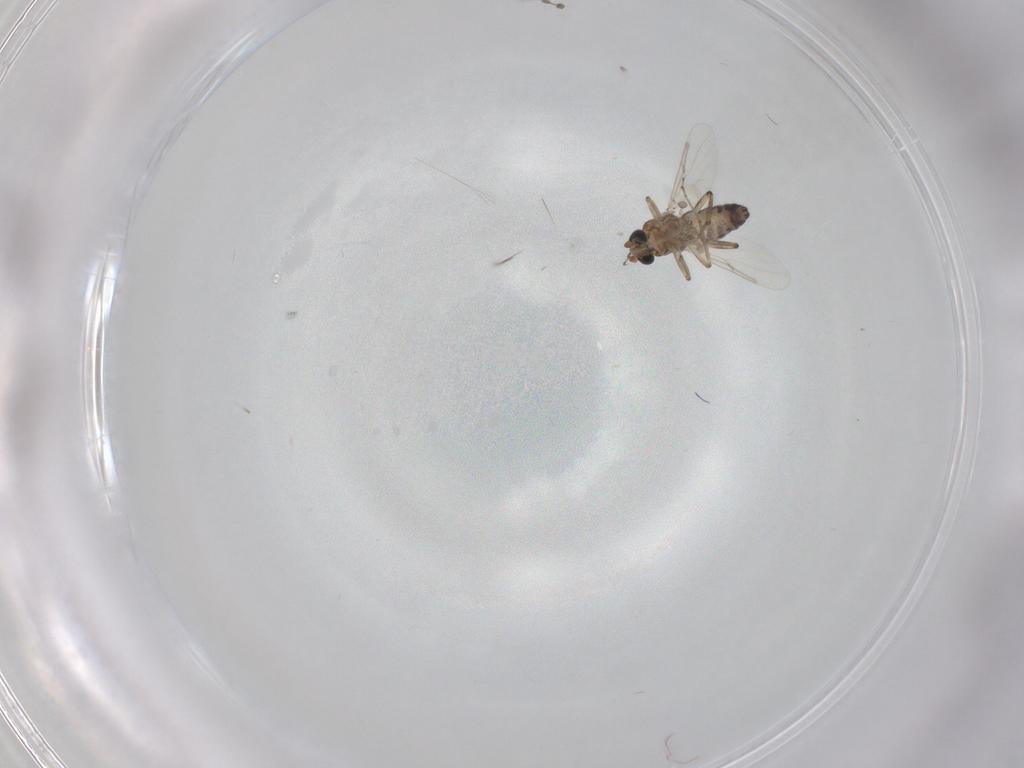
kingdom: Animalia
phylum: Arthropoda
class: Insecta
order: Diptera
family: Ceratopogonidae
